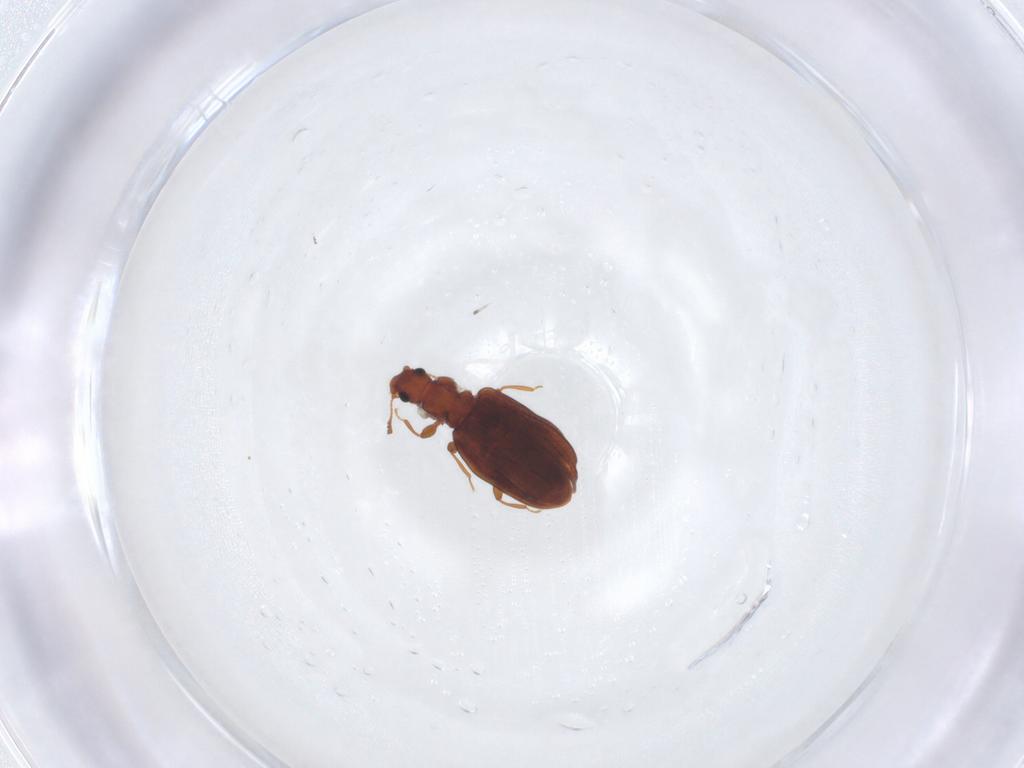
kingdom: Animalia
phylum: Arthropoda
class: Insecta
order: Coleoptera
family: Latridiidae
